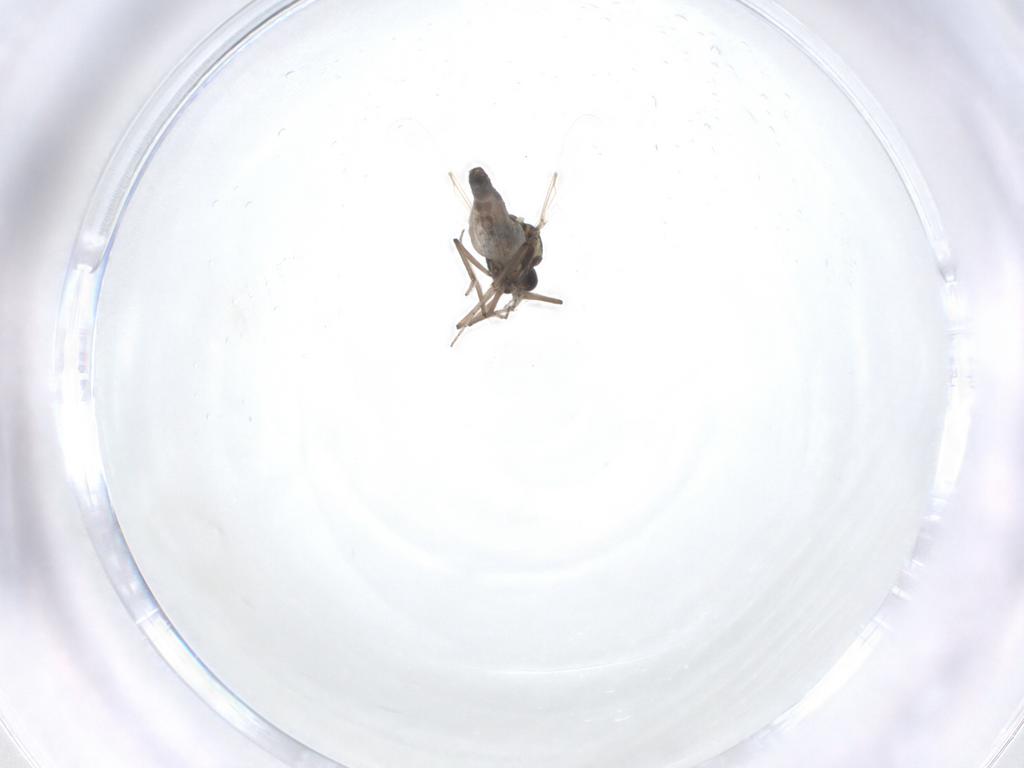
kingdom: Animalia
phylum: Arthropoda
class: Insecta
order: Diptera
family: Ceratopogonidae
